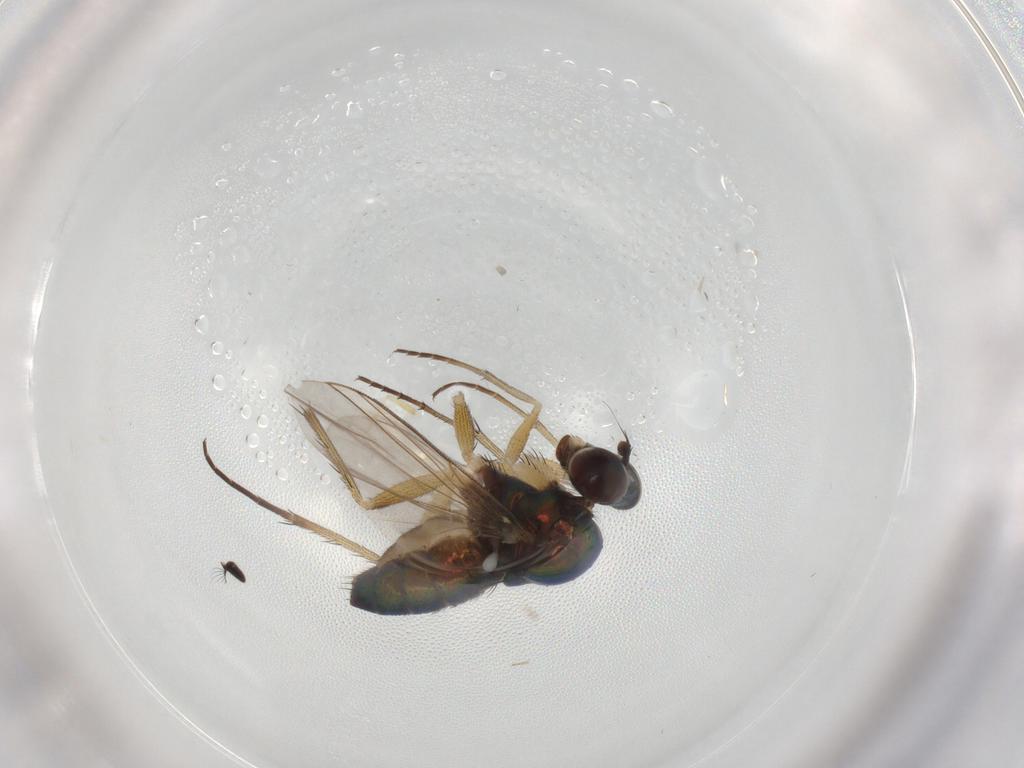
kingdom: Animalia
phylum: Arthropoda
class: Insecta
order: Diptera
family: Dolichopodidae
